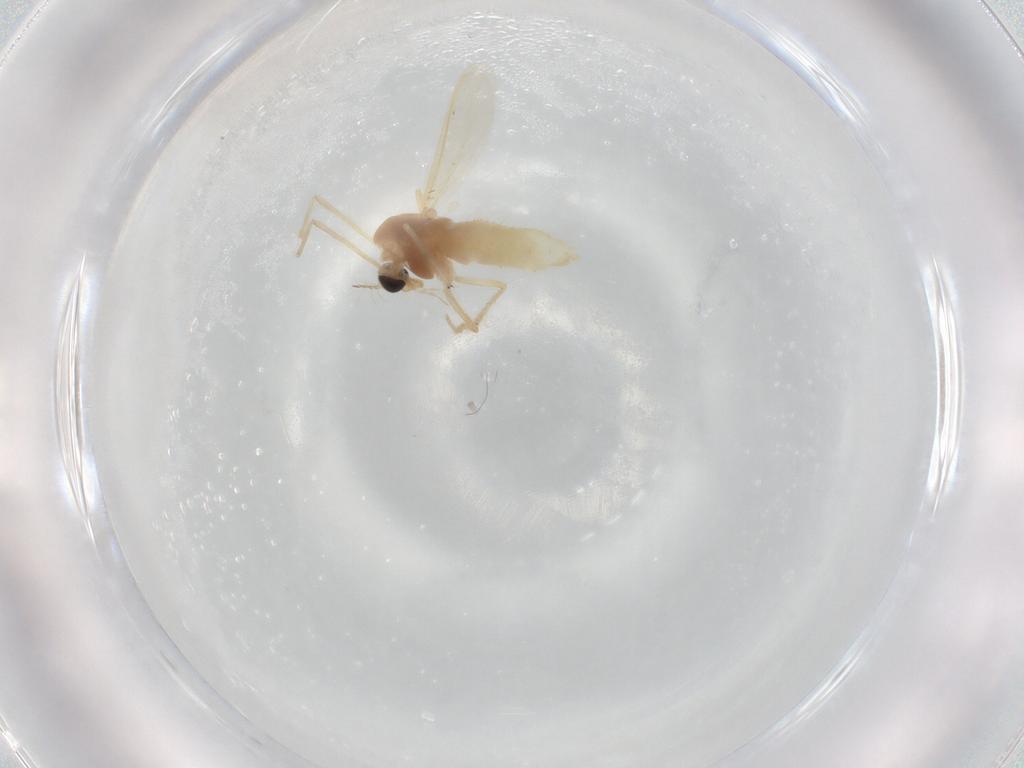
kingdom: Animalia
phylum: Arthropoda
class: Insecta
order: Diptera
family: Chironomidae
